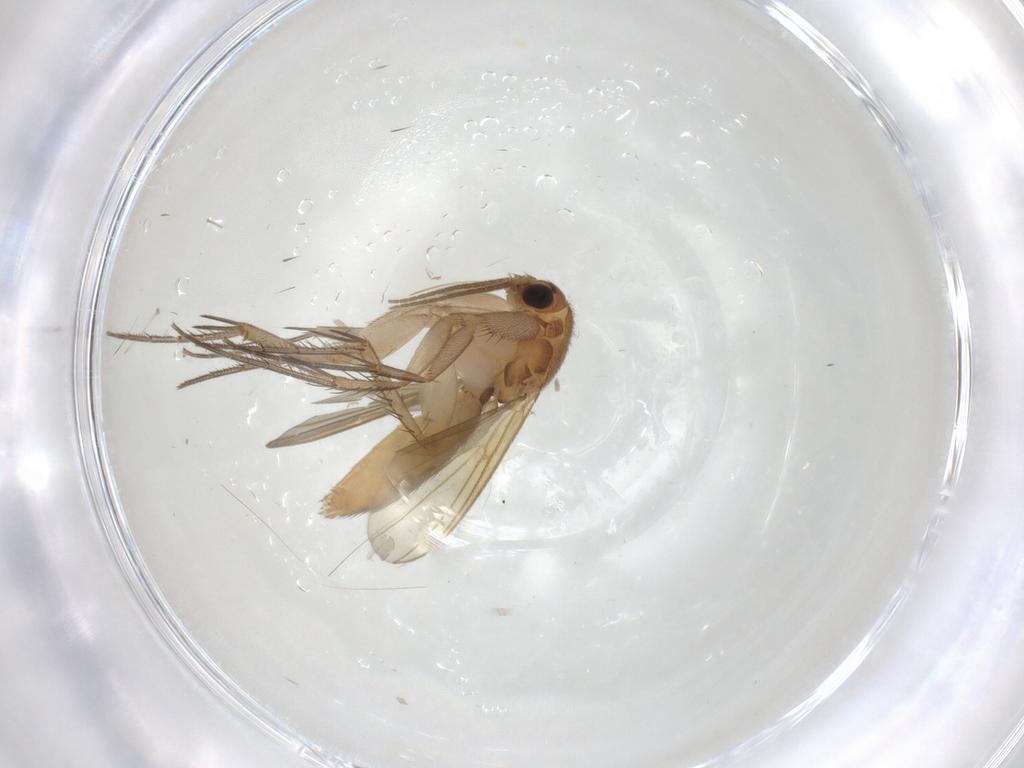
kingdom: Animalia
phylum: Arthropoda
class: Insecta
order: Diptera
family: Mycetophilidae
